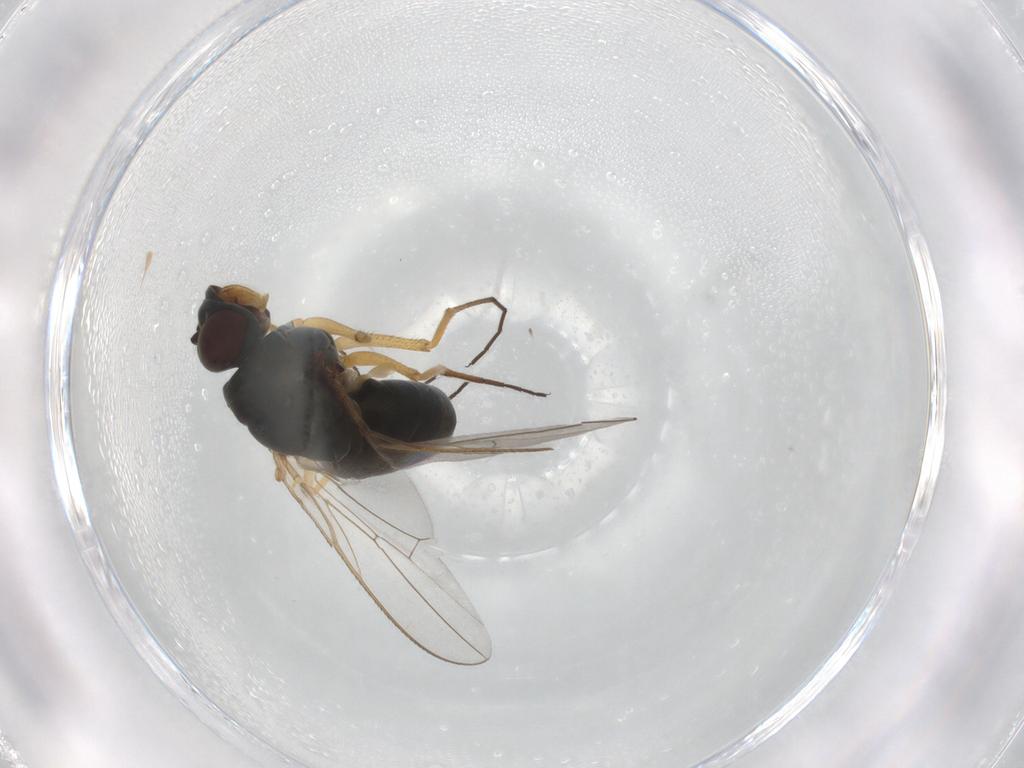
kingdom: Animalia
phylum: Arthropoda
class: Insecta
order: Diptera
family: Ephydridae
